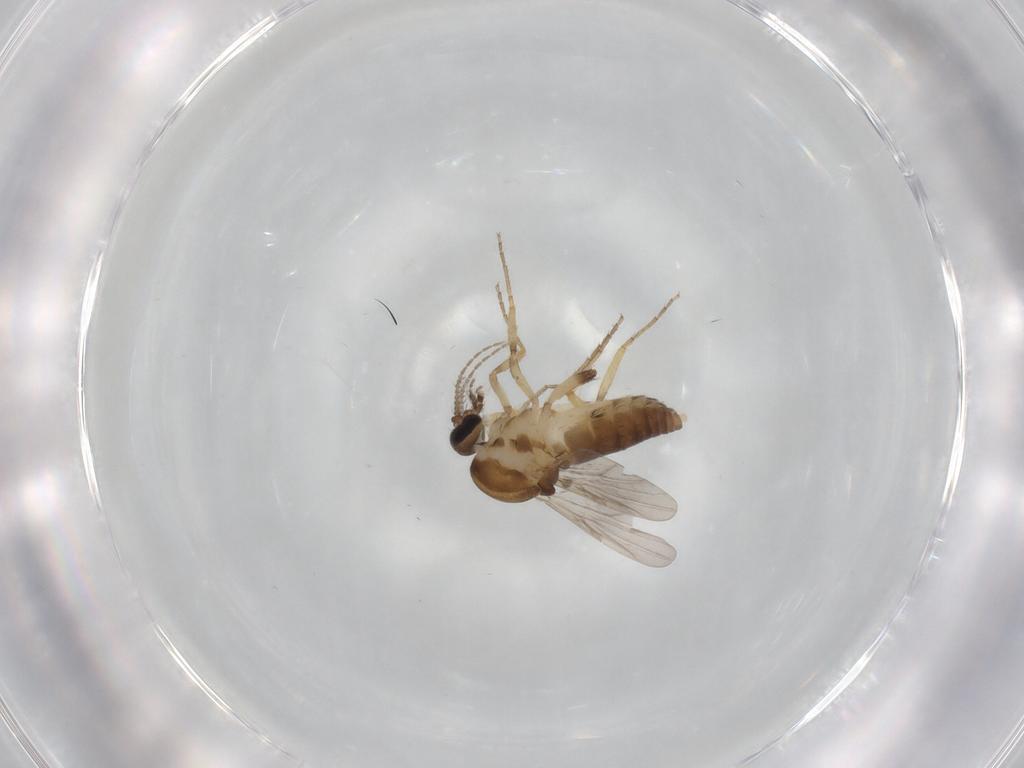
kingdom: Animalia
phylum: Arthropoda
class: Insecta
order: Diptera
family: Ceratopogonidae
